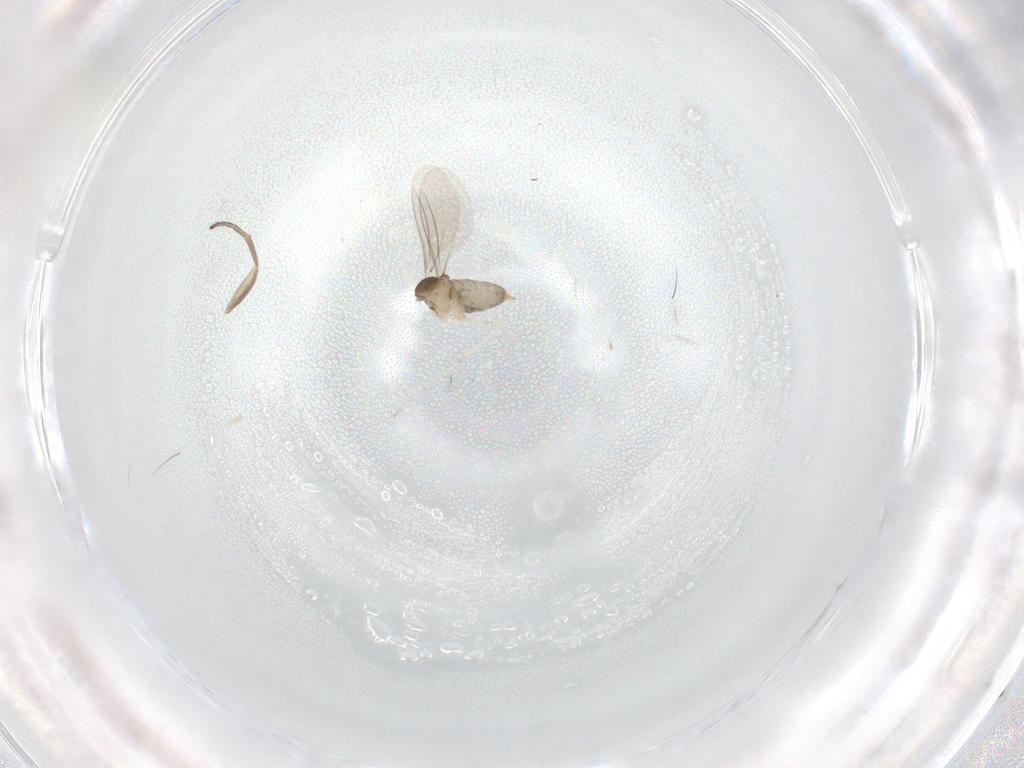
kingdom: Animalia
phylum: Arthropoda
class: Insecta
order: Diptera
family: Cecidomyiidae
